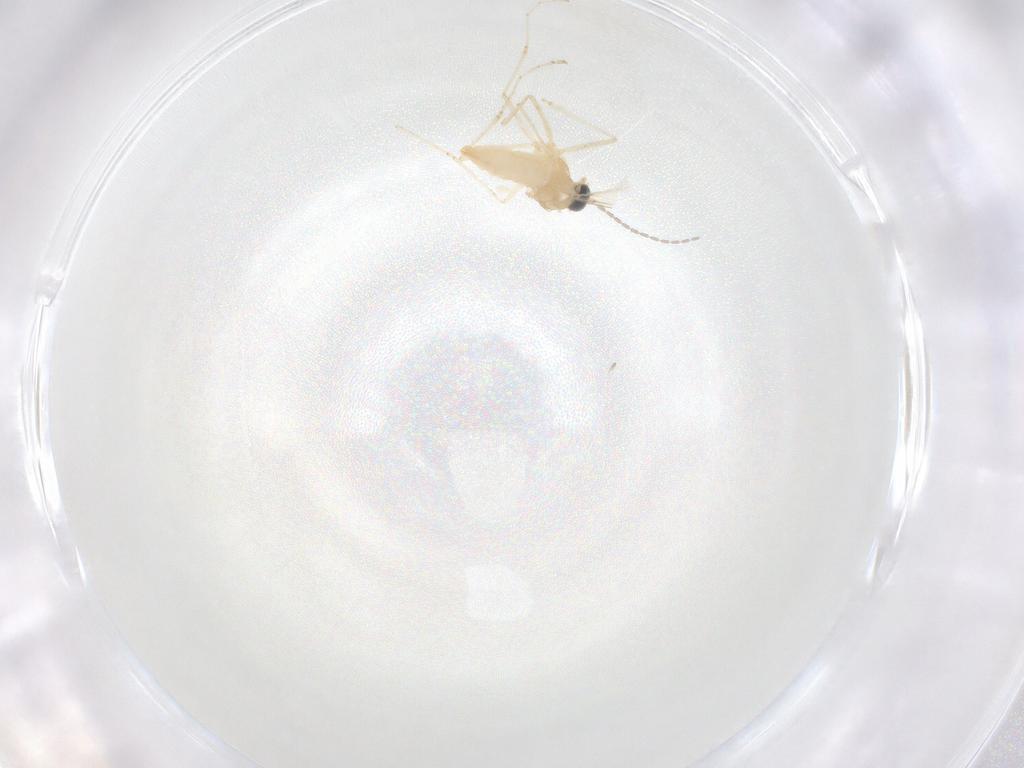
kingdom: Animalia
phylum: Arthropoda
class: Insecta
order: Diptera
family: Cecidomyiidae
